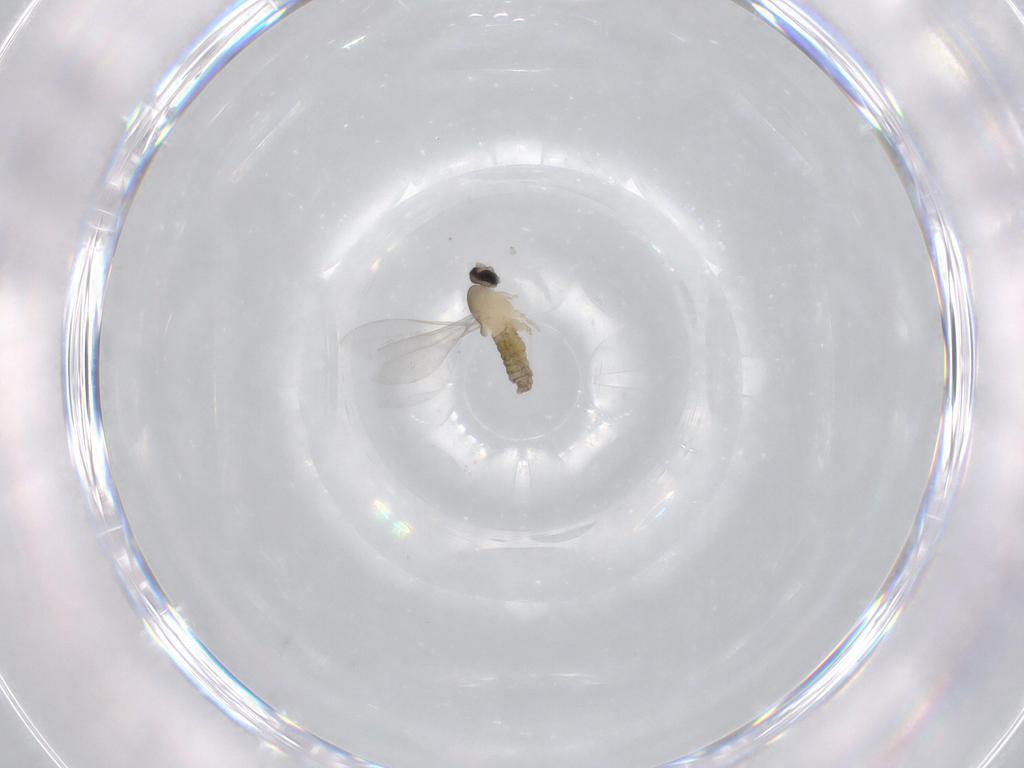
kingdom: Animalia
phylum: Arthropoda
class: Insecta
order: Diptera
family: Cecidomyiidae
